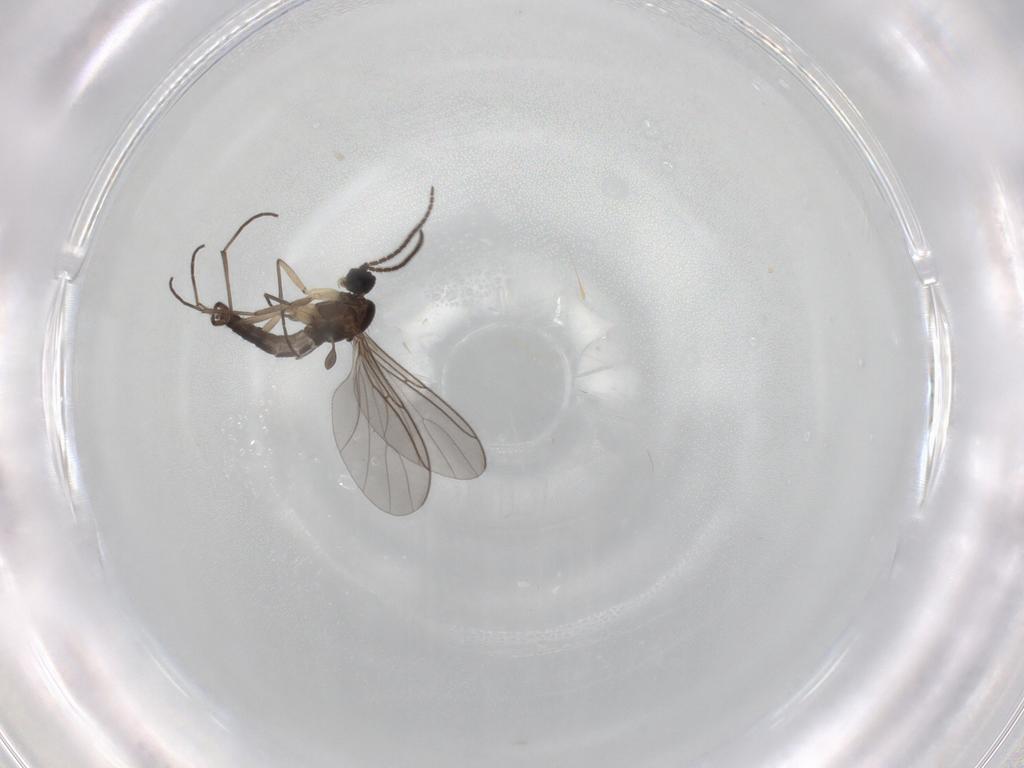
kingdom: Animalia
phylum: Arthropoda
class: Insecta
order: Diptera
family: Sciaridae
